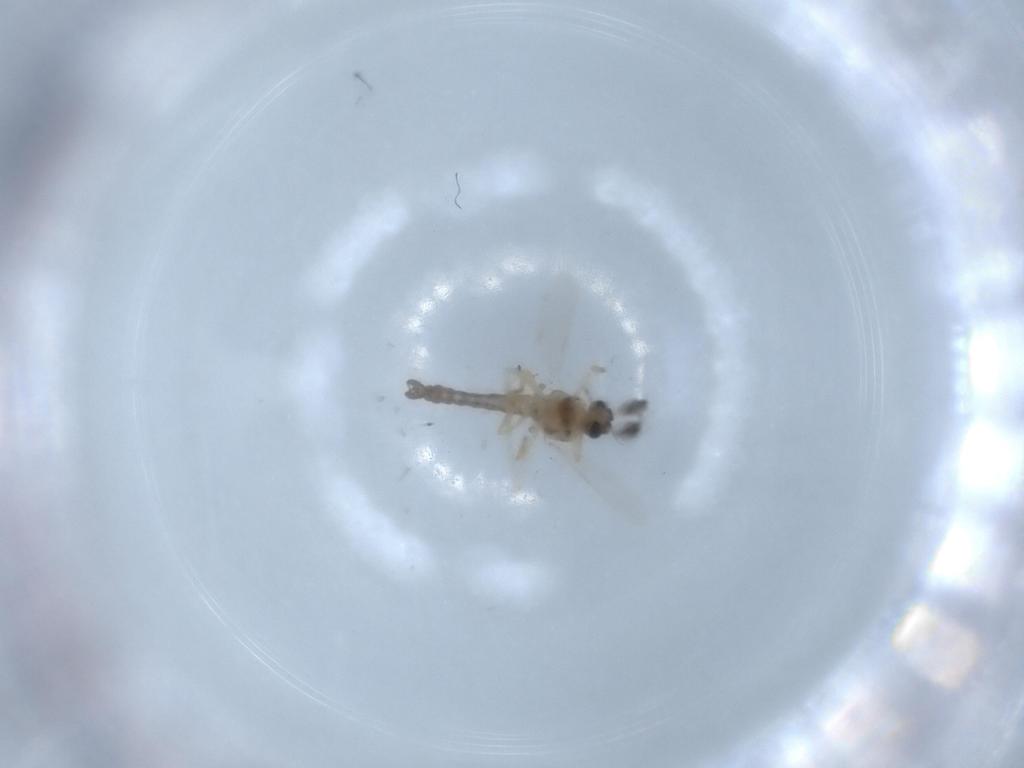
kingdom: Animalia
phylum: Arthropoda
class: Insecta
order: Diptera
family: Ceratopogonidae
